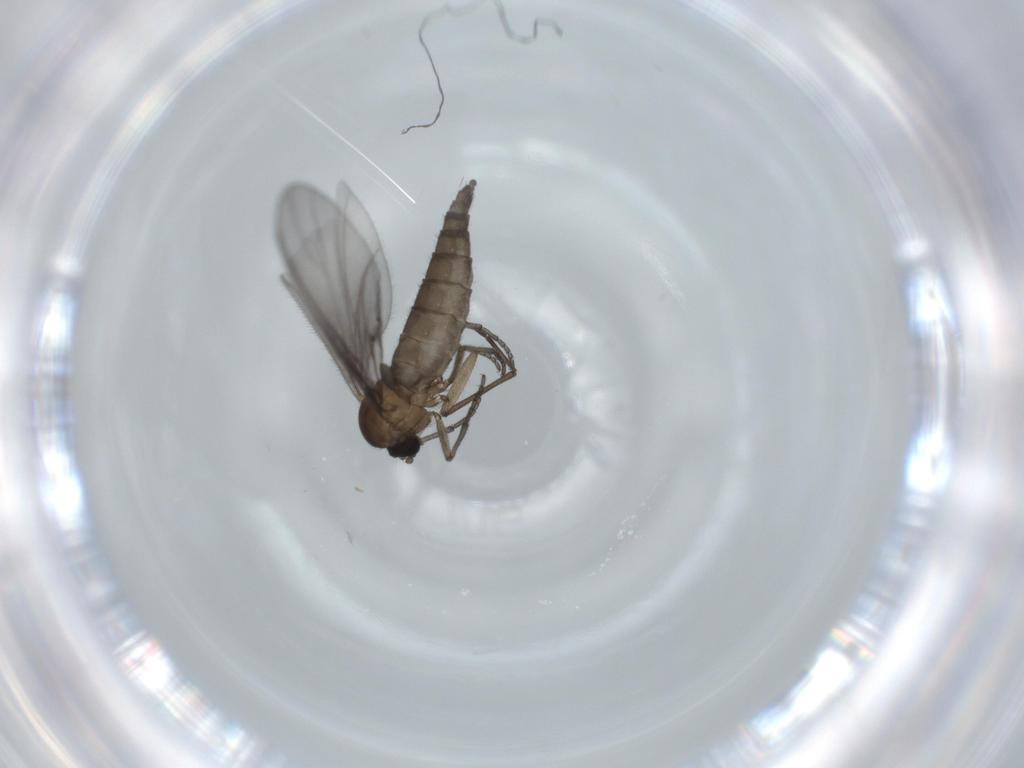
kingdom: Animalia
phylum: Arthropoda
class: Insecta
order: Diptera
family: Sciaridae
